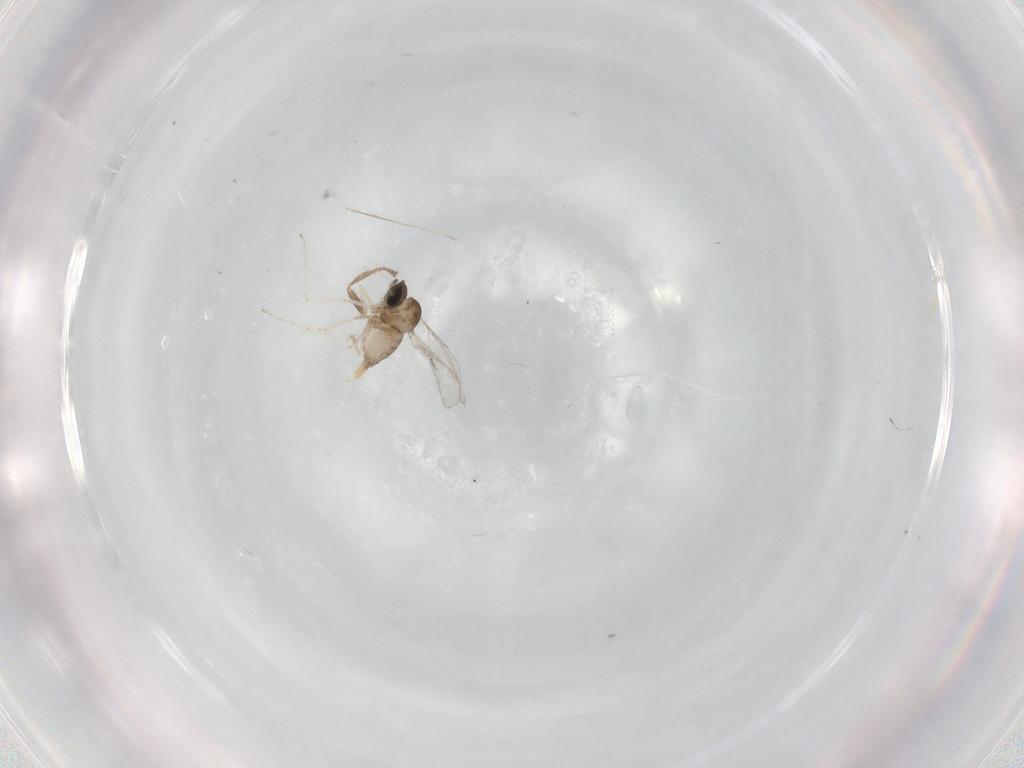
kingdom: Animalia
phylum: Arthropoda
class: Insecta
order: Diptera
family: Cecidomyiidae
